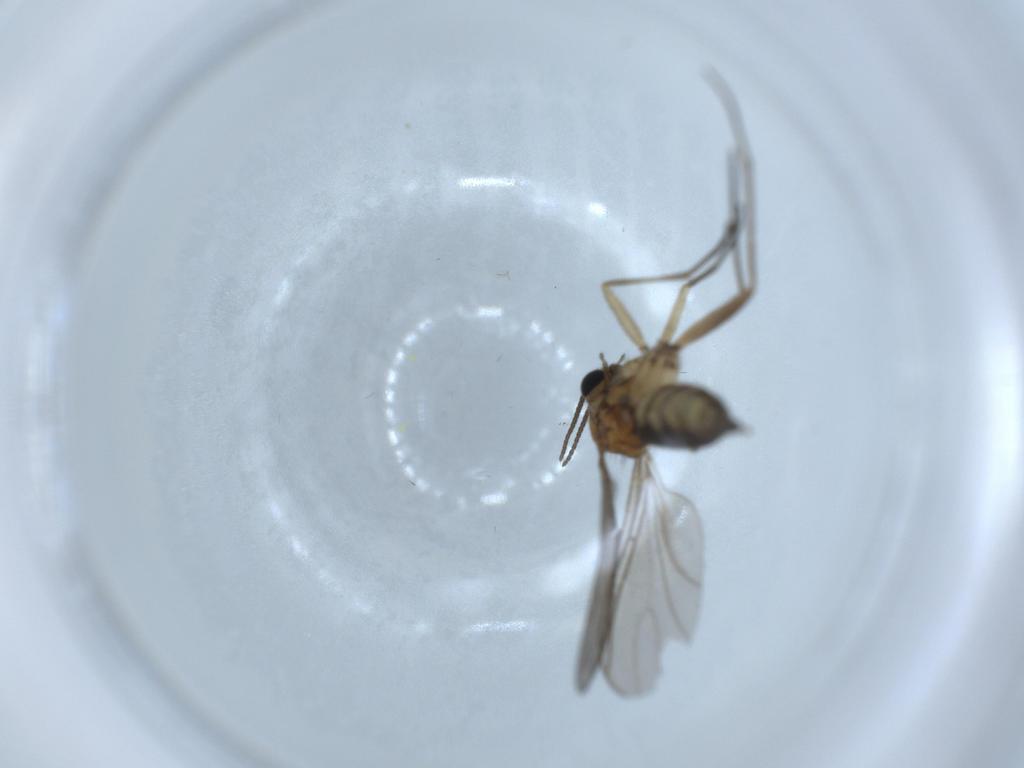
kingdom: Animalia
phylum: Arthropoda
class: Insecta
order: Diptera
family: Sciaridae
